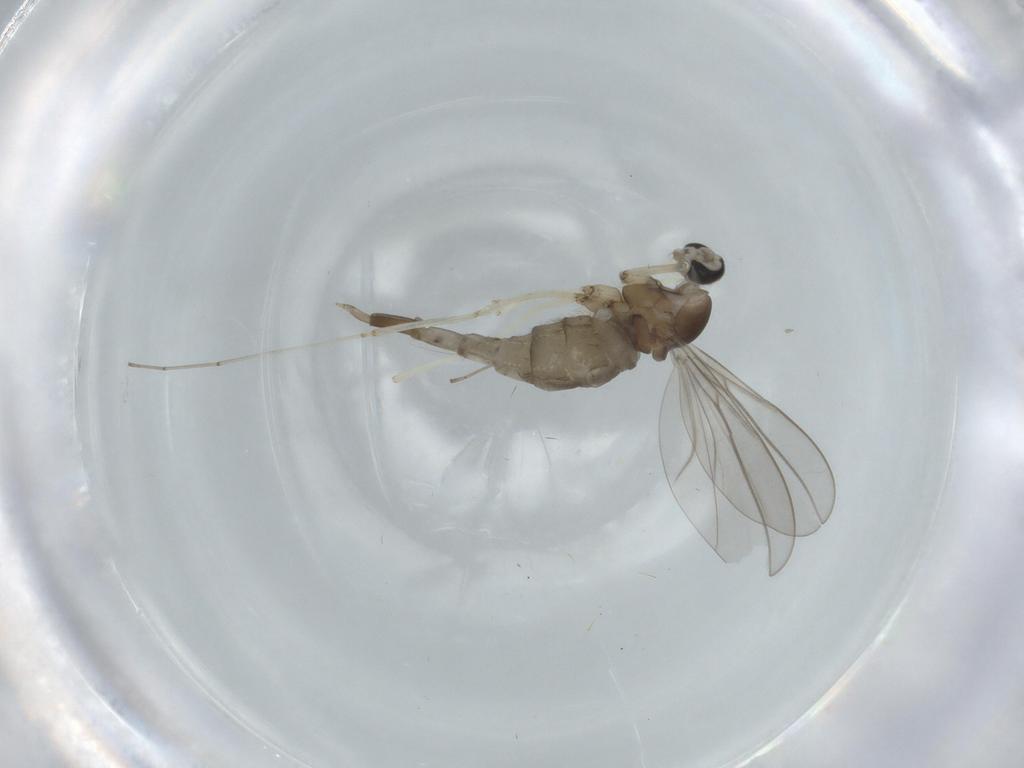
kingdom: Animalia
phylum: Arthropoda
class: Insecta
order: Diptera
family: Cecidomyiidae
